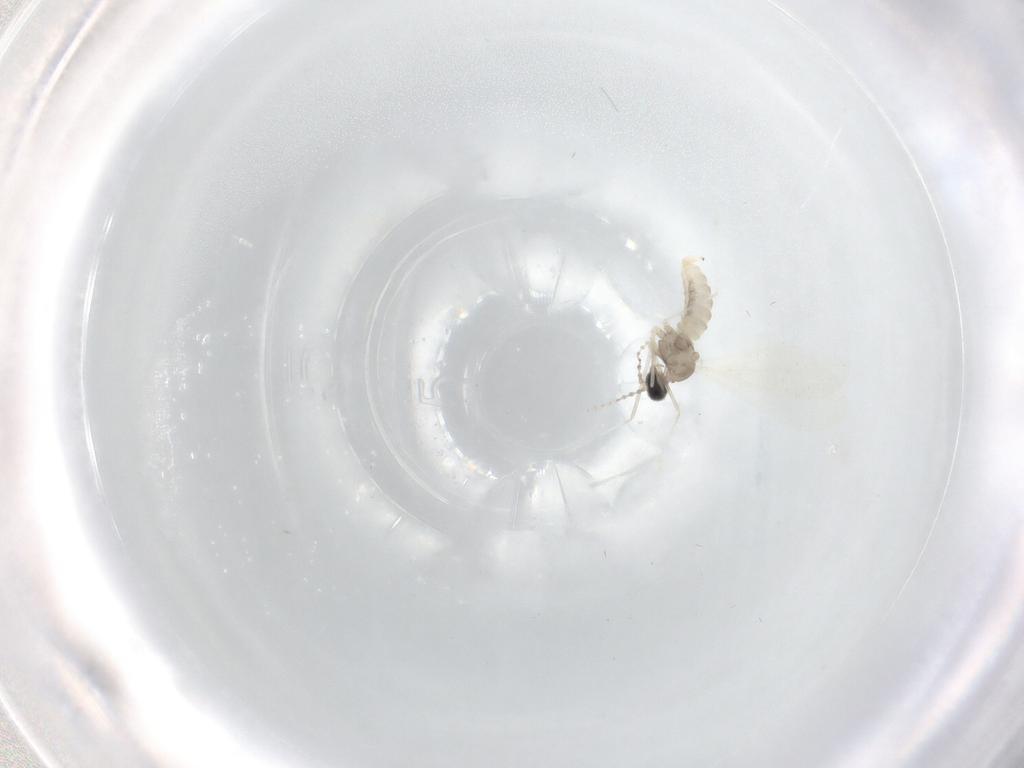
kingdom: Animalia
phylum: Arthropoda
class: Insecta
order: Diptera
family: Cecidomyiidae
